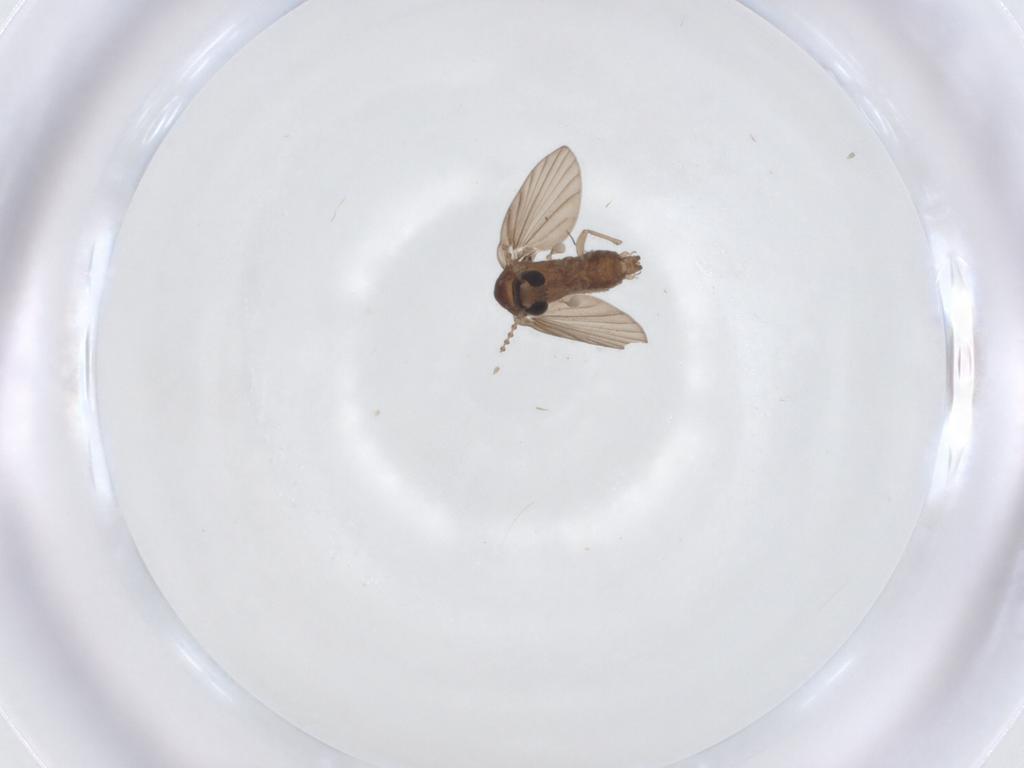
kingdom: Animalia
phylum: Arthropoda
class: Insecta
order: Diptera
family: Psychodidae
